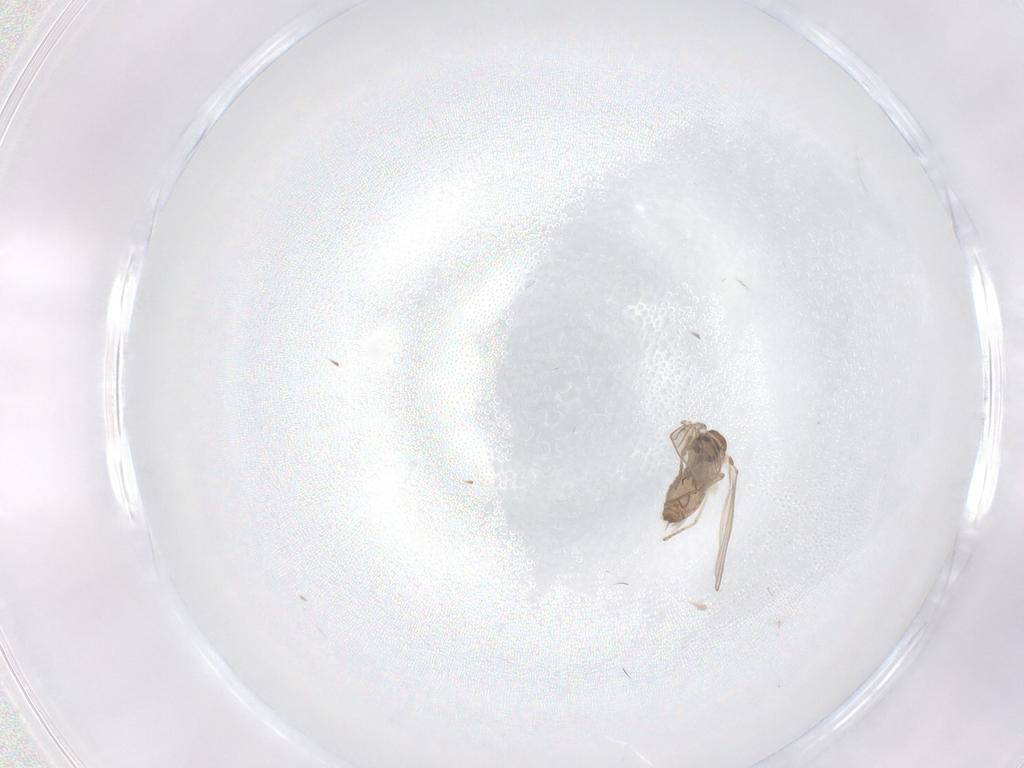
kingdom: Animalia
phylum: Arthropoda
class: Insecta
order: Diptera
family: Psychodidae
